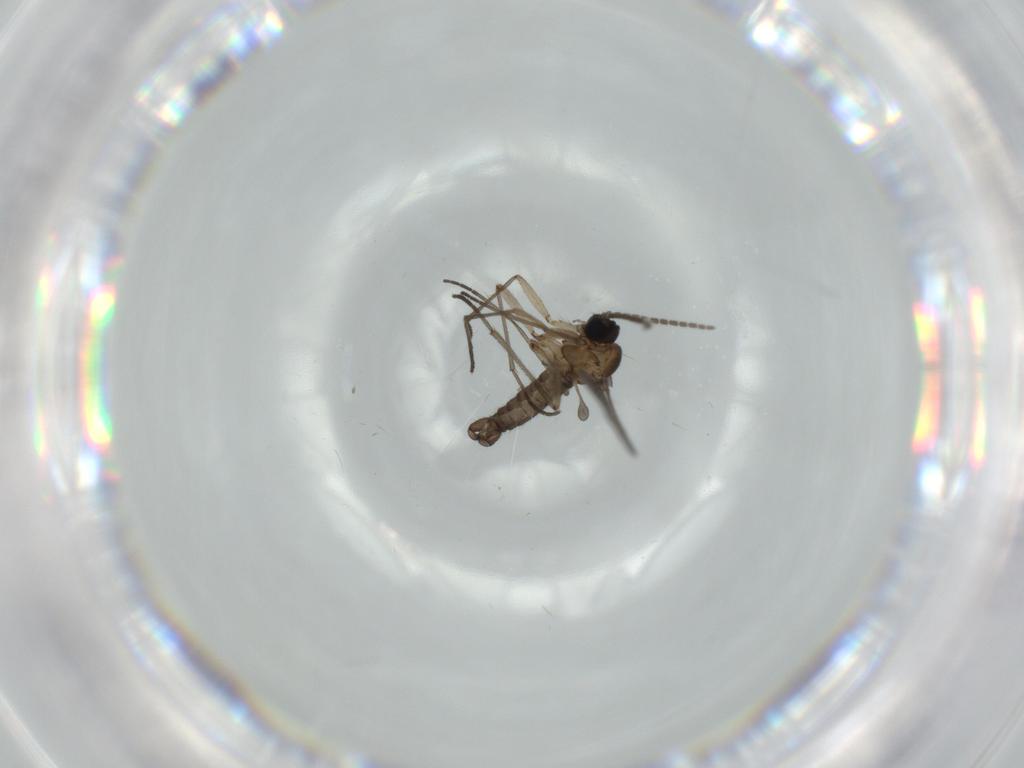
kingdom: Animalia
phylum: Arthropoda
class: Insecta
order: Diptera
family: Sciaridae
